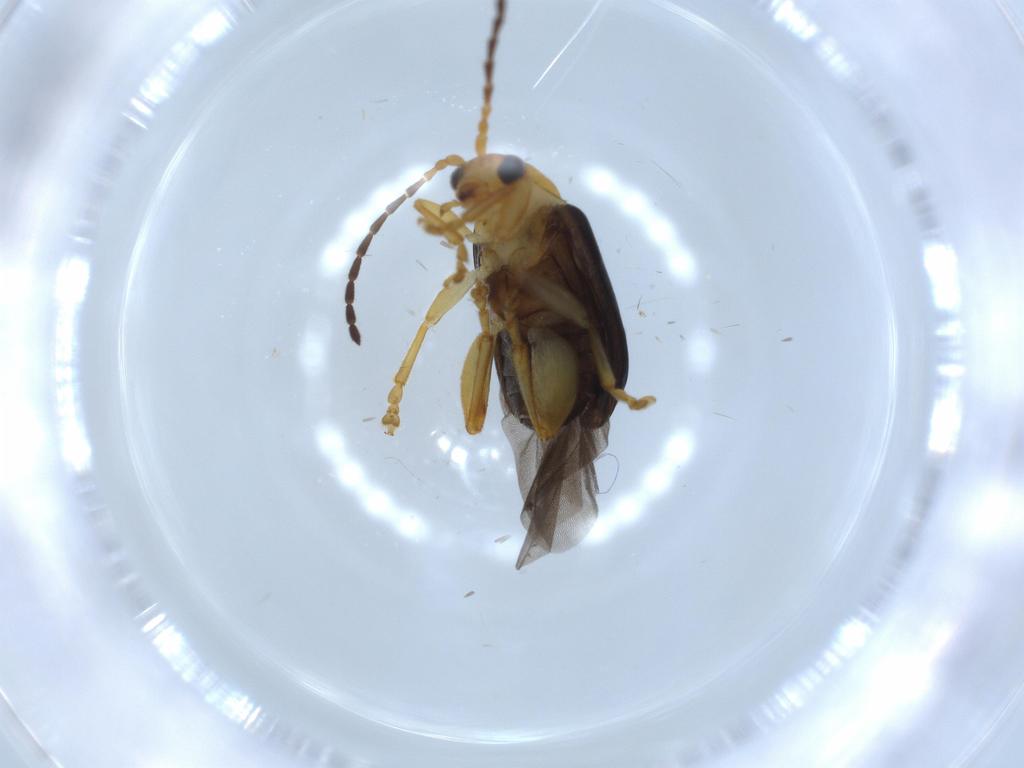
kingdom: Animalia
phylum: Arthropoda
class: Insecta
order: Coleoptera
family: Chrysomelidae
